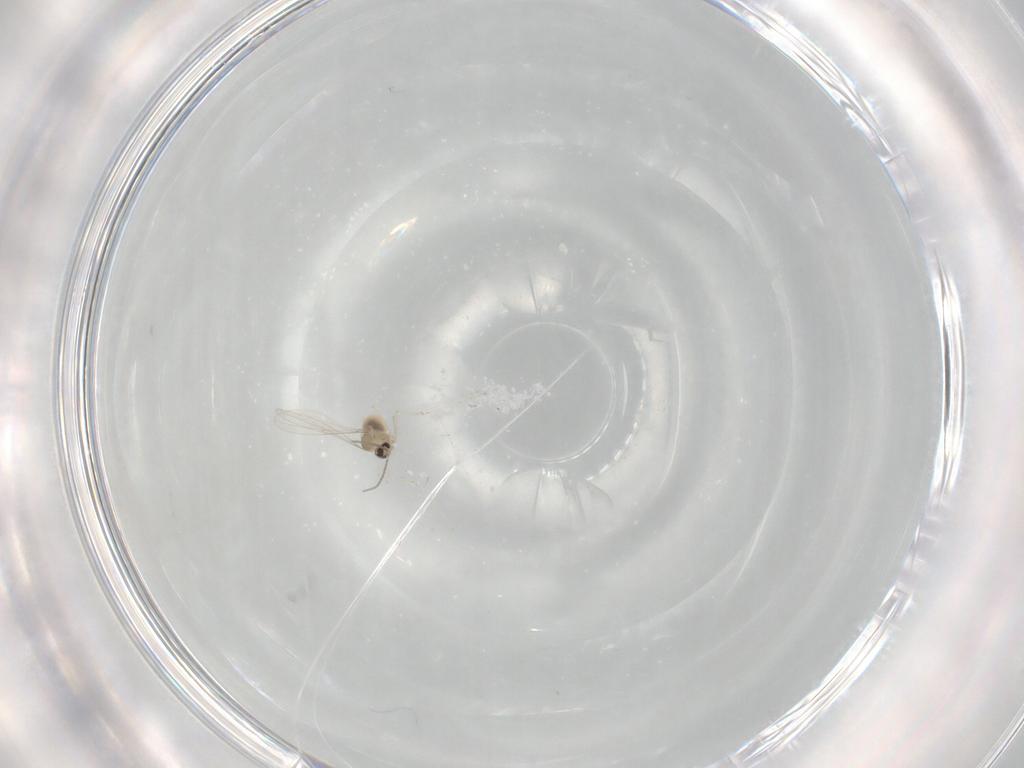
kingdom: Animalia
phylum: Arthropoda
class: Insecta
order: Diptera
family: Cecidomyiidae
